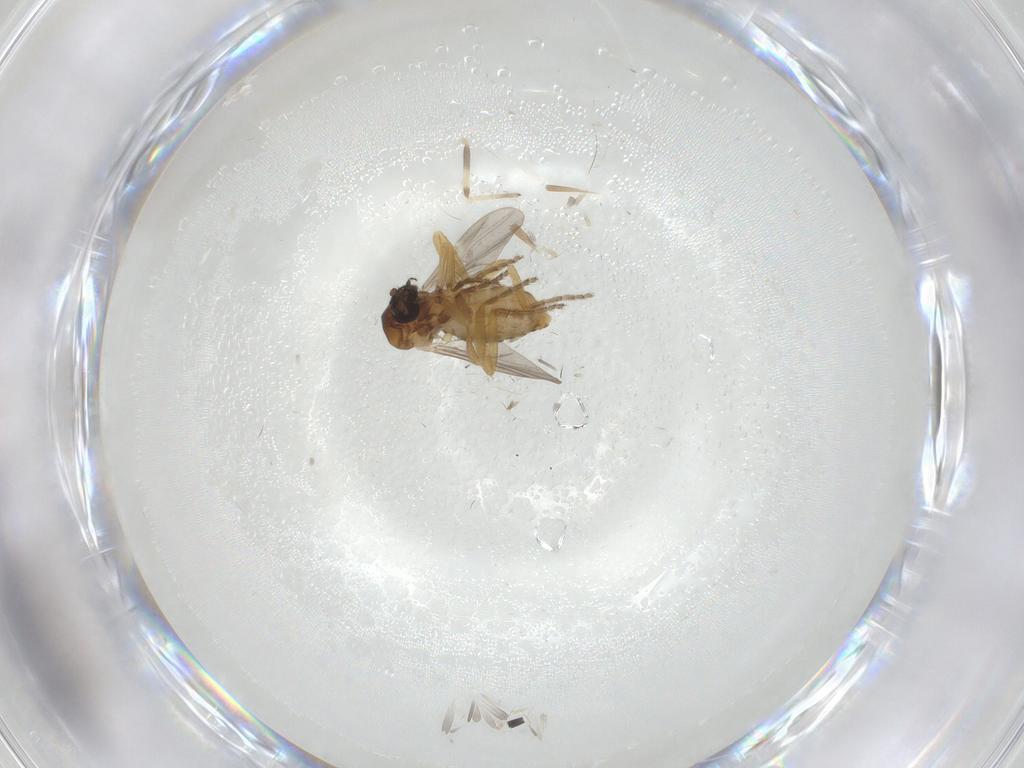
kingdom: Animalia
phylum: Arthropoda
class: Insecta
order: Diptera
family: Ceratopogonidae
